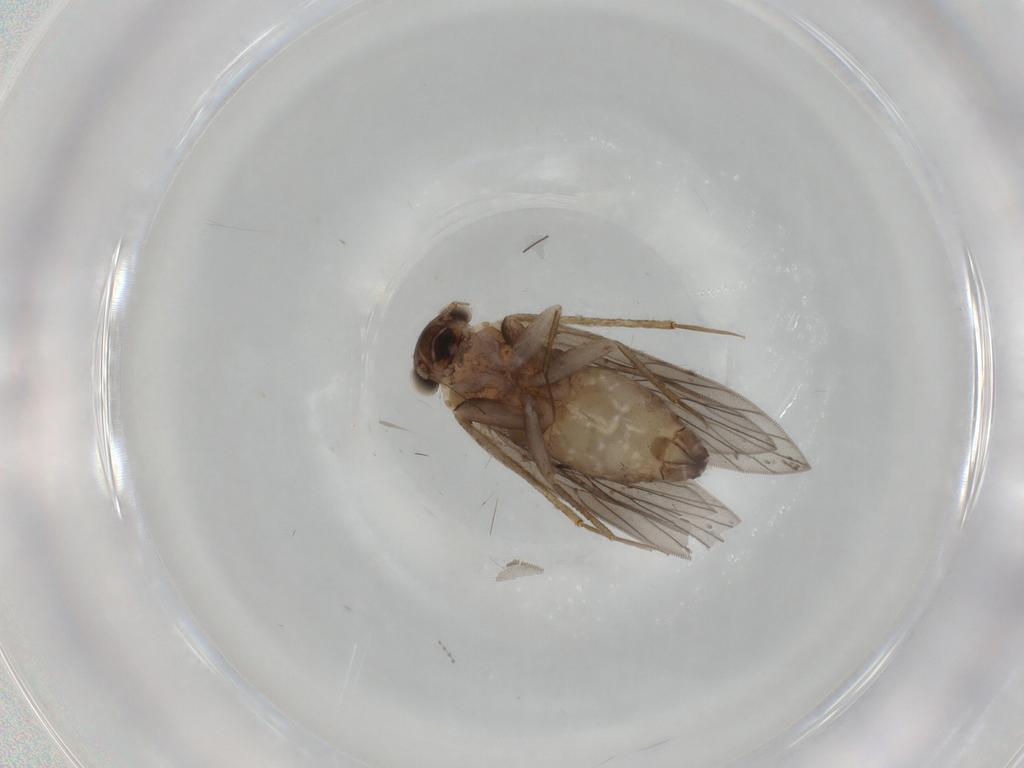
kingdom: Animalia
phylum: Arthropoda
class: Insecta
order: Psocodea
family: Lepidopsocidae
